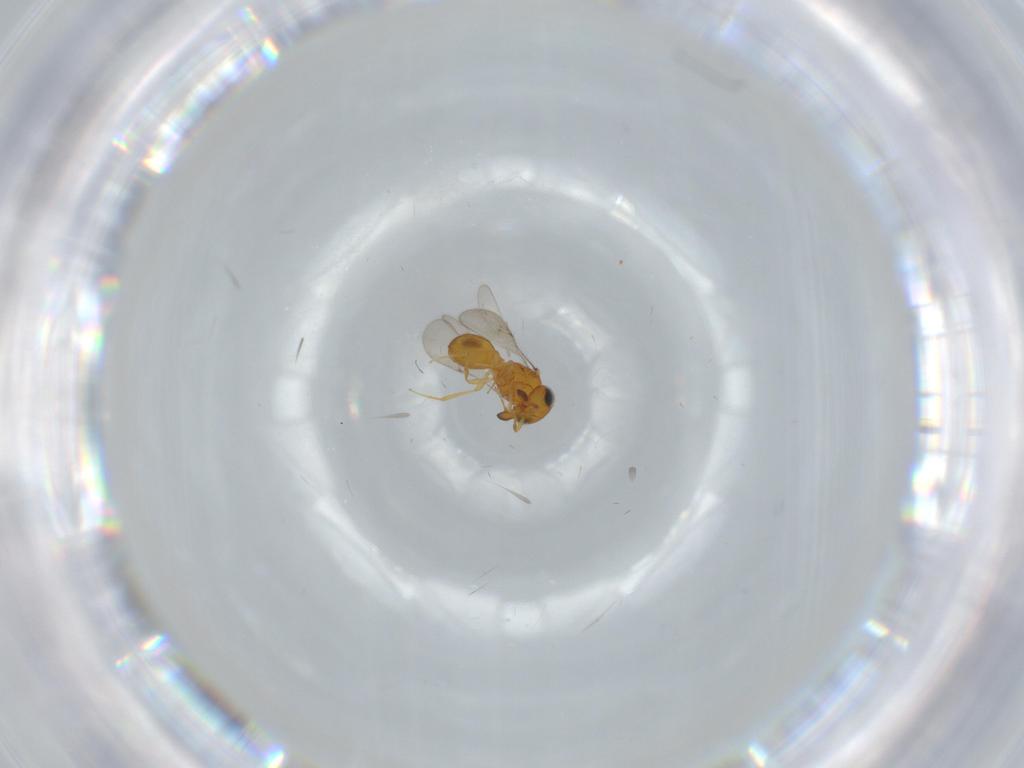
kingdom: Animalia
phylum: Arthropoda
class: Insecta
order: Hymenoptera
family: Scelionidae
